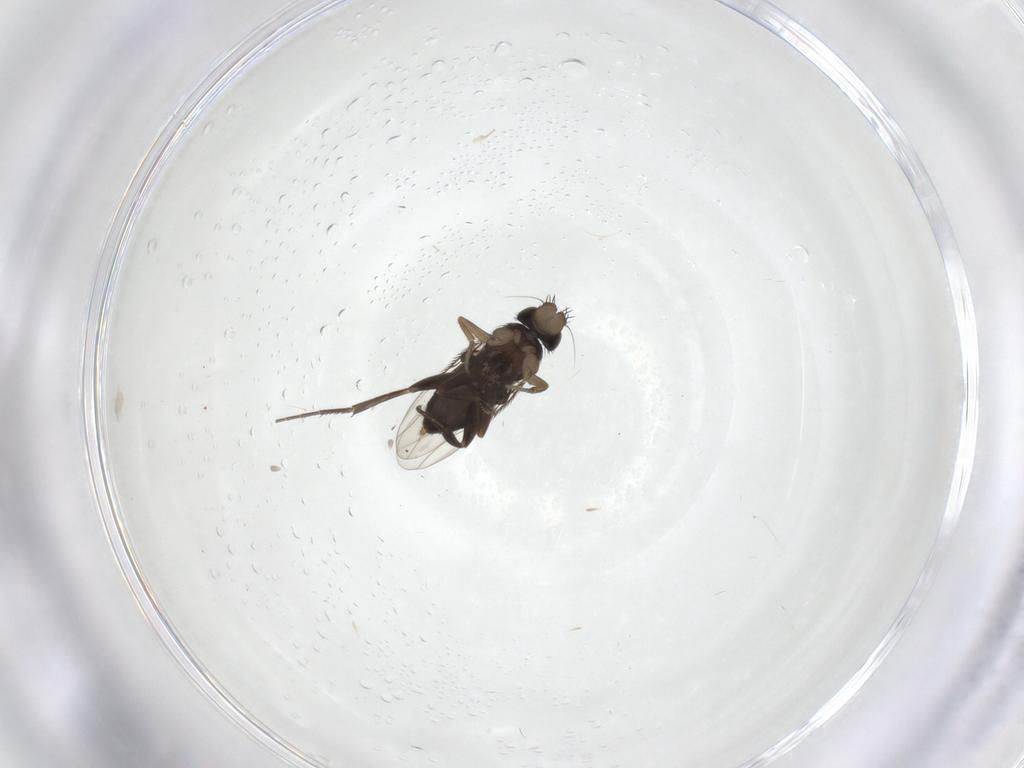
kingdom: Animalia
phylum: Arthropoda
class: Insecta
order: Diptera
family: Phoridae
